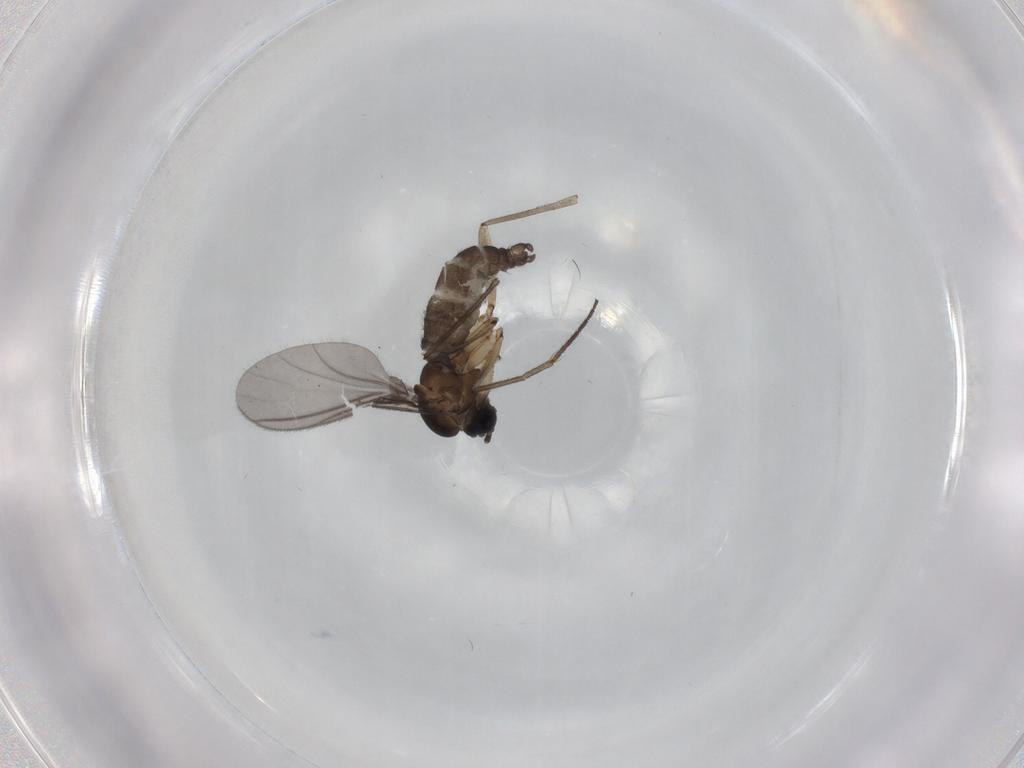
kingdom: Animalia
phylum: Arthropoda
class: Insecta
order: Diptera
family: Sciaridae
